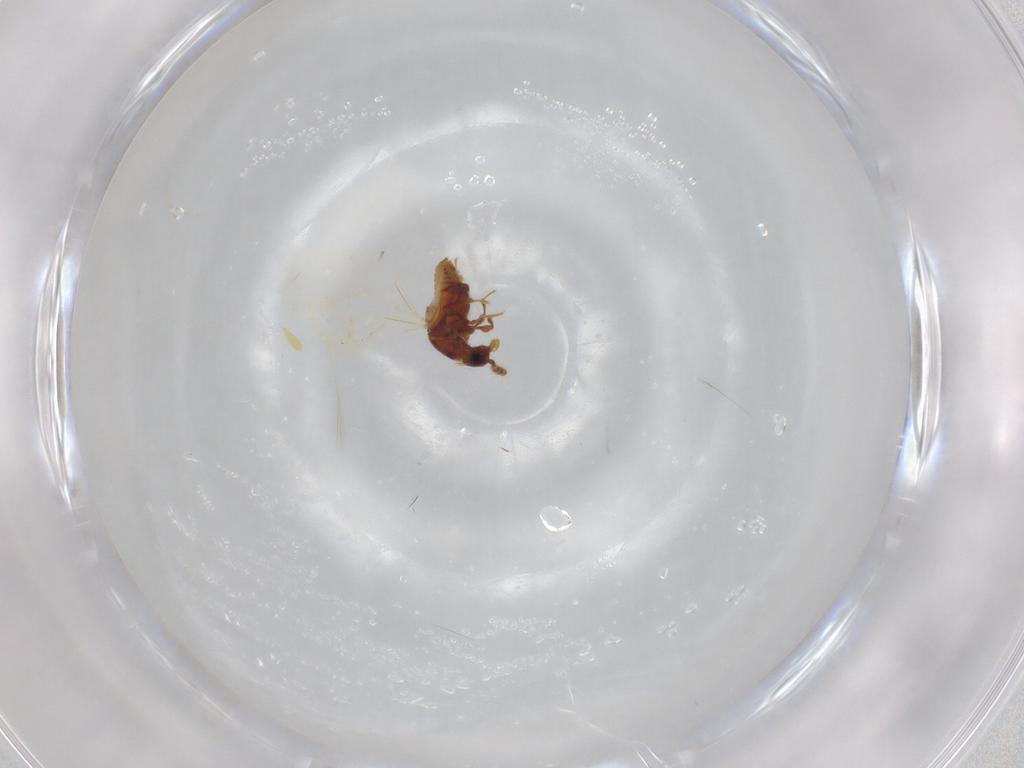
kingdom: Animalia
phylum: Arthropoda
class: Insecta
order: Coleoptera
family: Staphylinidae
